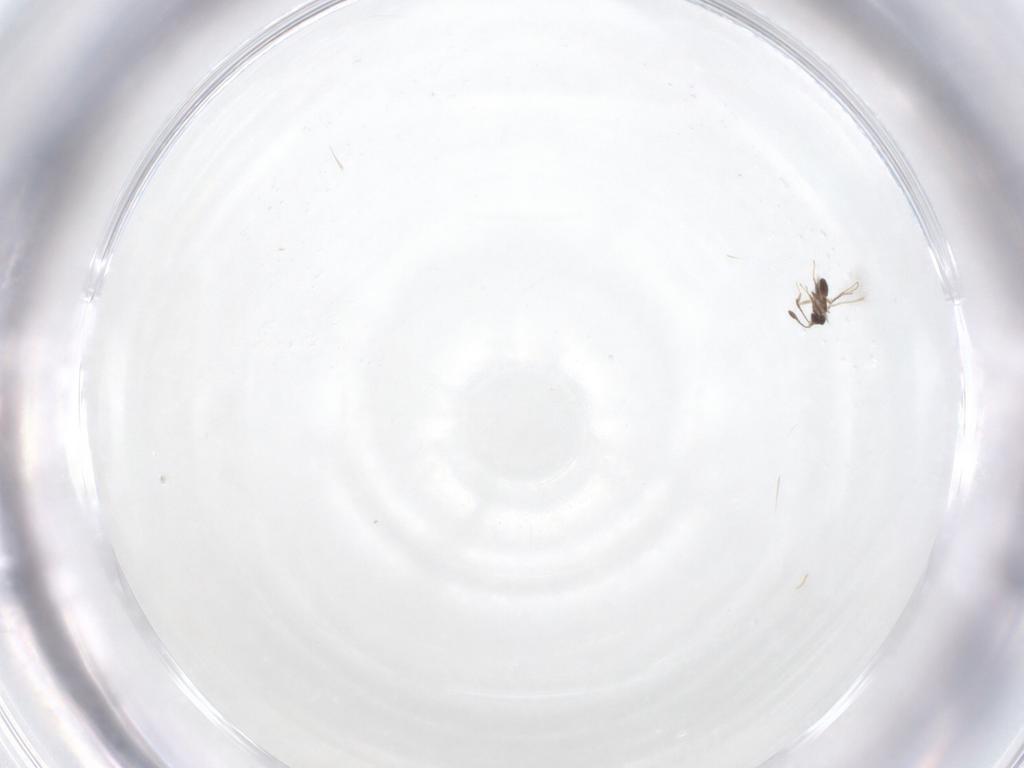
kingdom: Animalia
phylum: Arthropoda
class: Insecta
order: Hymenoptera
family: Mymaridae
